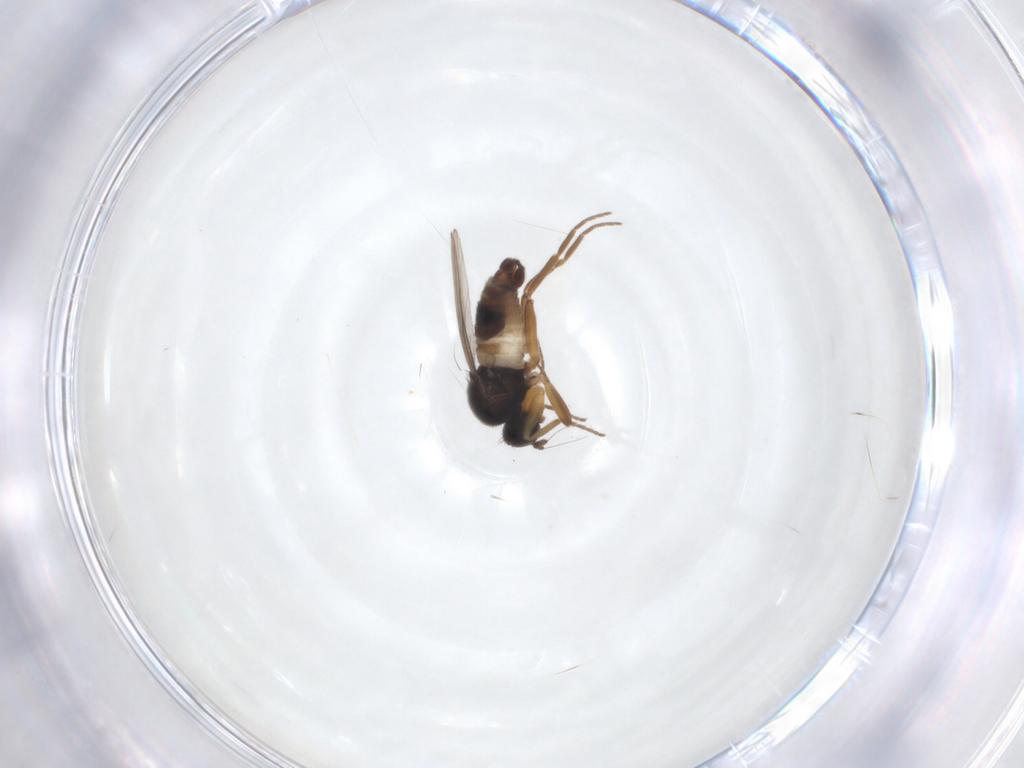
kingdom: Animalia
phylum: Arthropoda
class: Insecta
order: Diptera
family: Hybotidae
